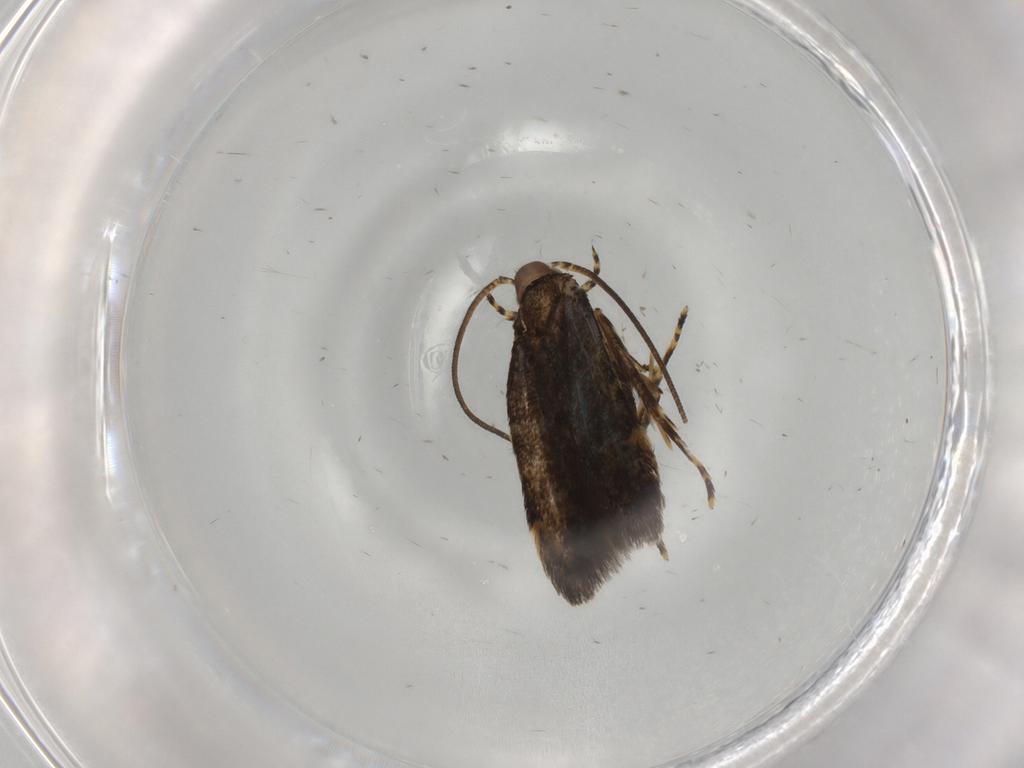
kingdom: Animalia
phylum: Arthropoda
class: Insecta
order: Lepidoptera
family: Oecophoridae
